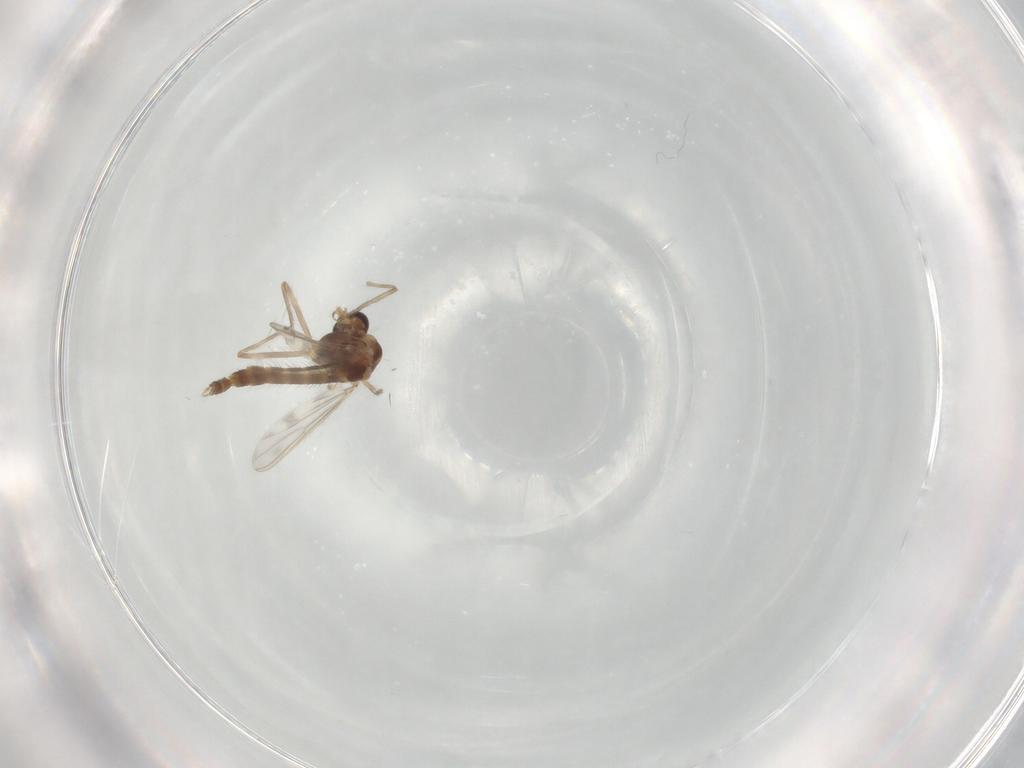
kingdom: Animalia
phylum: Arthropoda
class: Insecta
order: Diptera
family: Chironomidae
